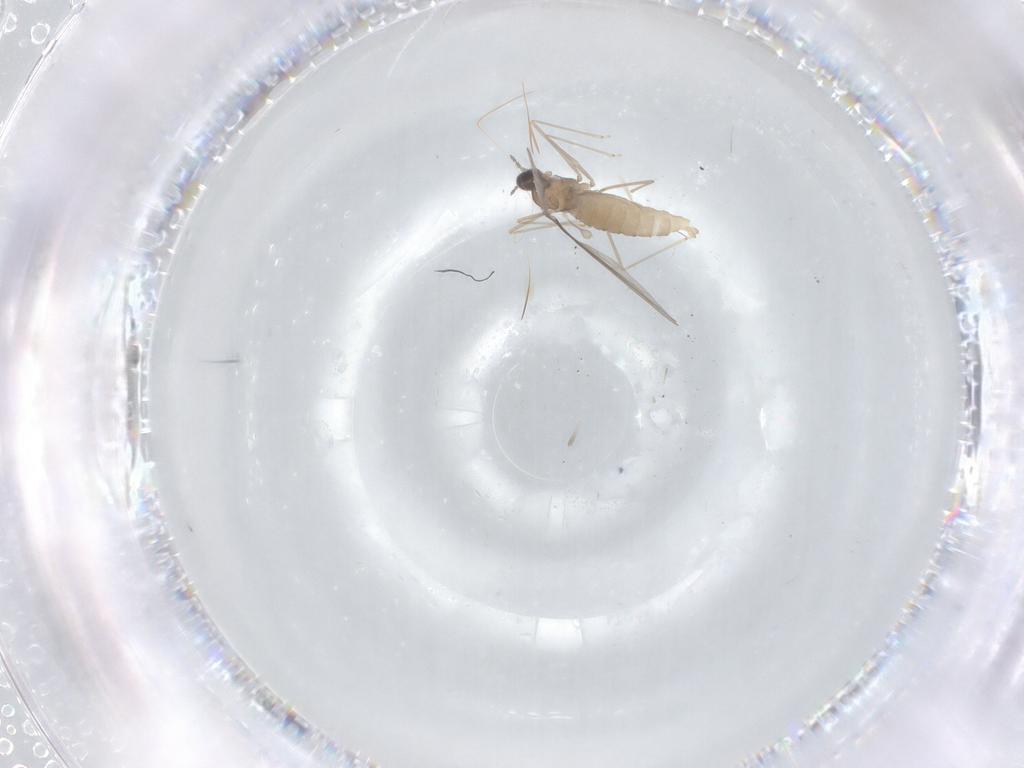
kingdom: Animalia
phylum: Arthropoda
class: Insecta
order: Diptera
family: Cecidomyiidae
